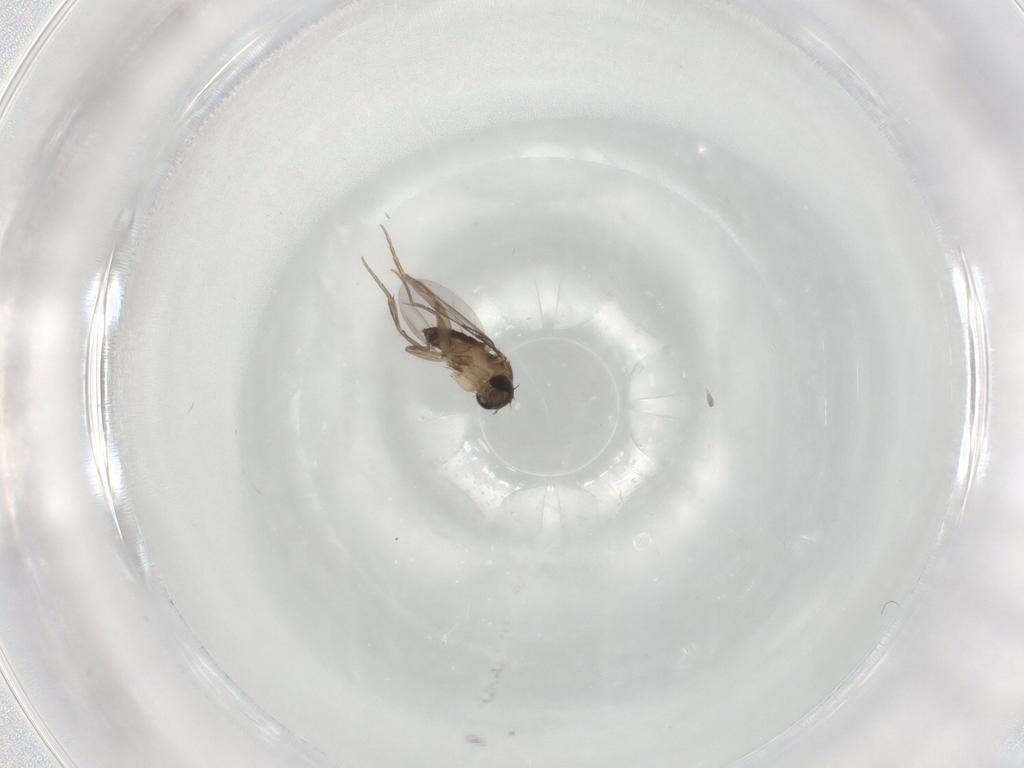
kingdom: Animalia
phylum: Arthropoda
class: Insecta
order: Diptera
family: Phoridae
